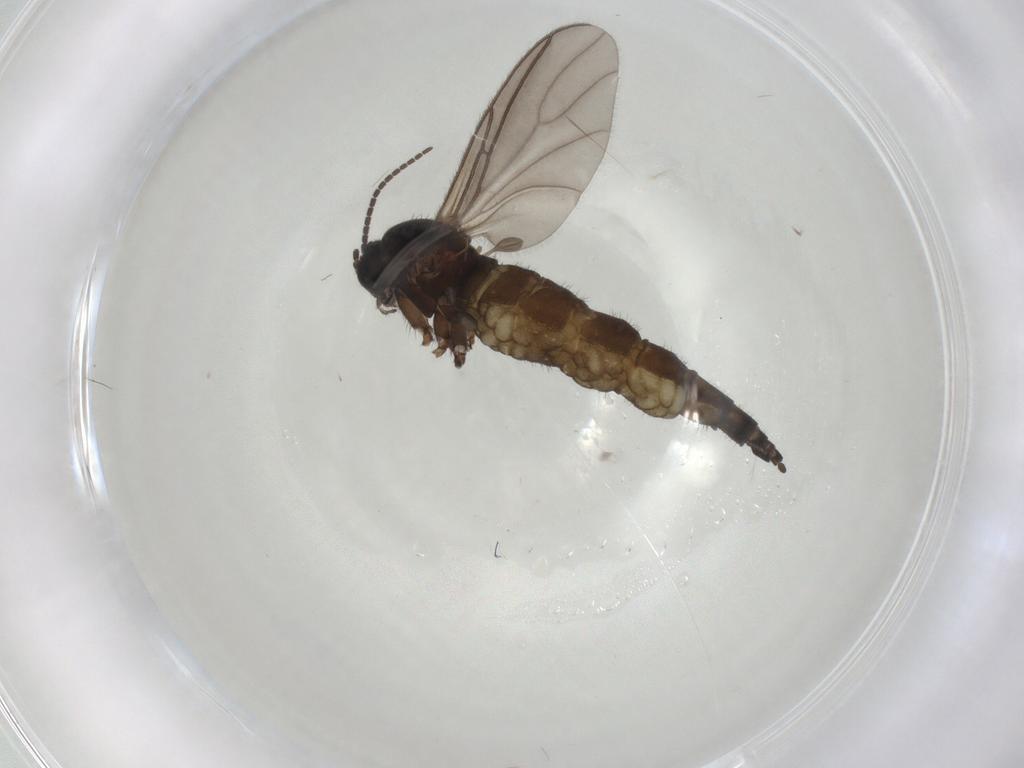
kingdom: Animalia
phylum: Arthropoda
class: Insecta
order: Diptera
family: Sciaridae
